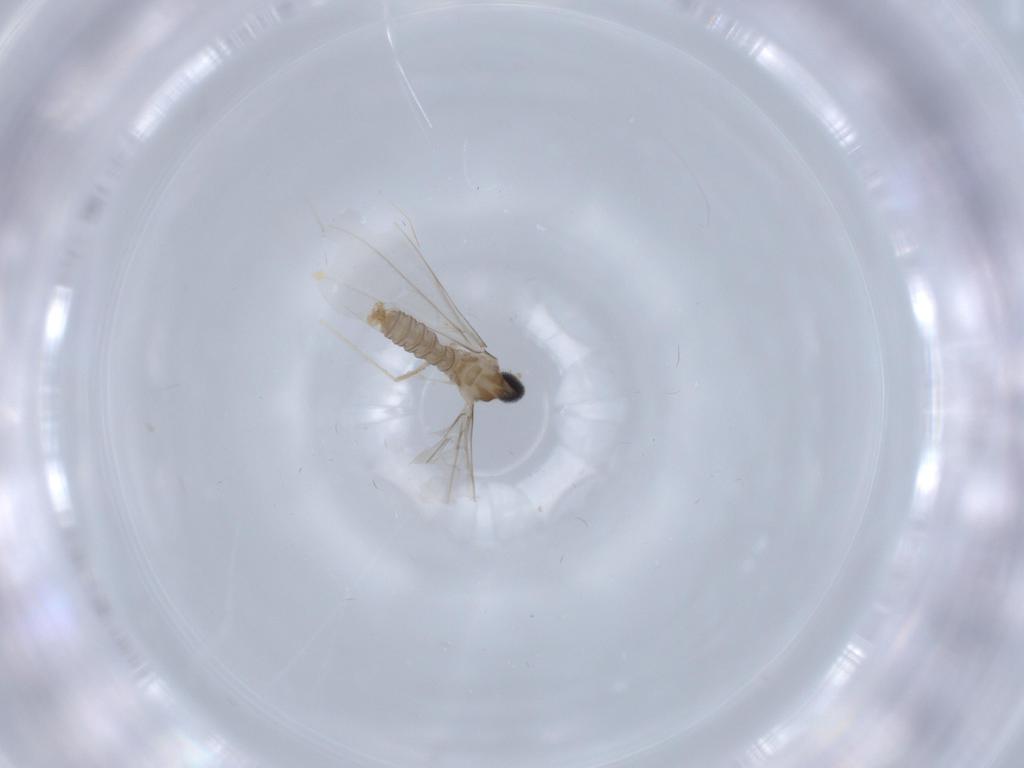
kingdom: Animalia
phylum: Arthropoda
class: Insecta
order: Diptera
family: Cecidomyiidae
